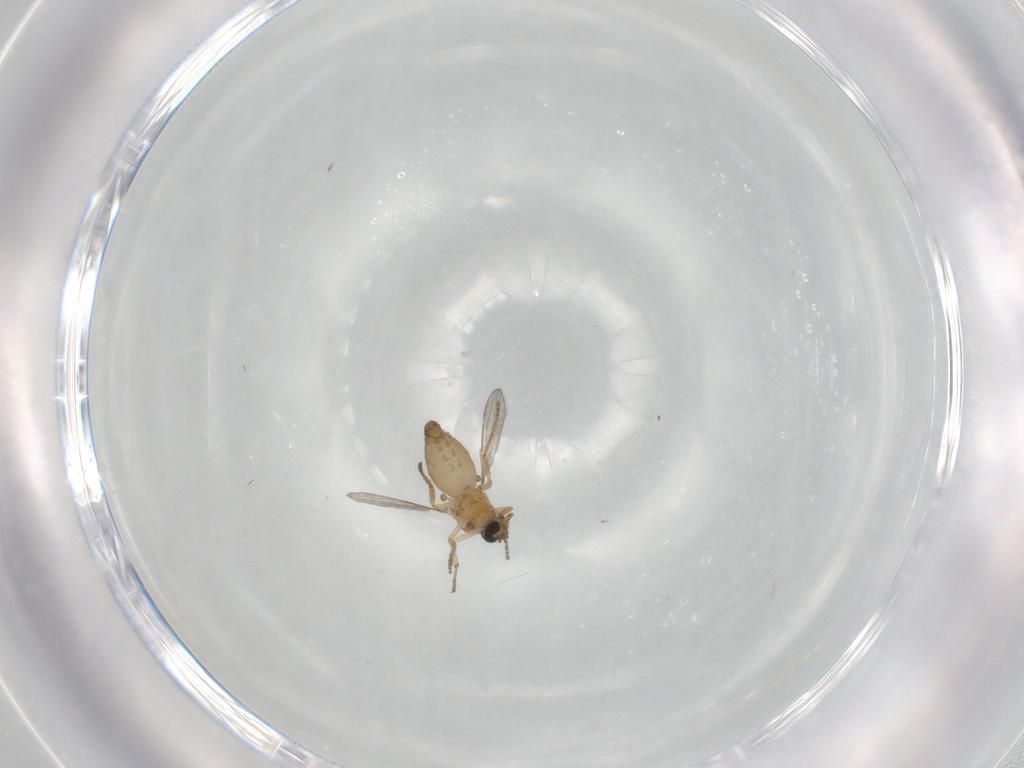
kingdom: Animalia
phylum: Arthropoda
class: Insecta
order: Diptera
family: Ceratopogonidae
